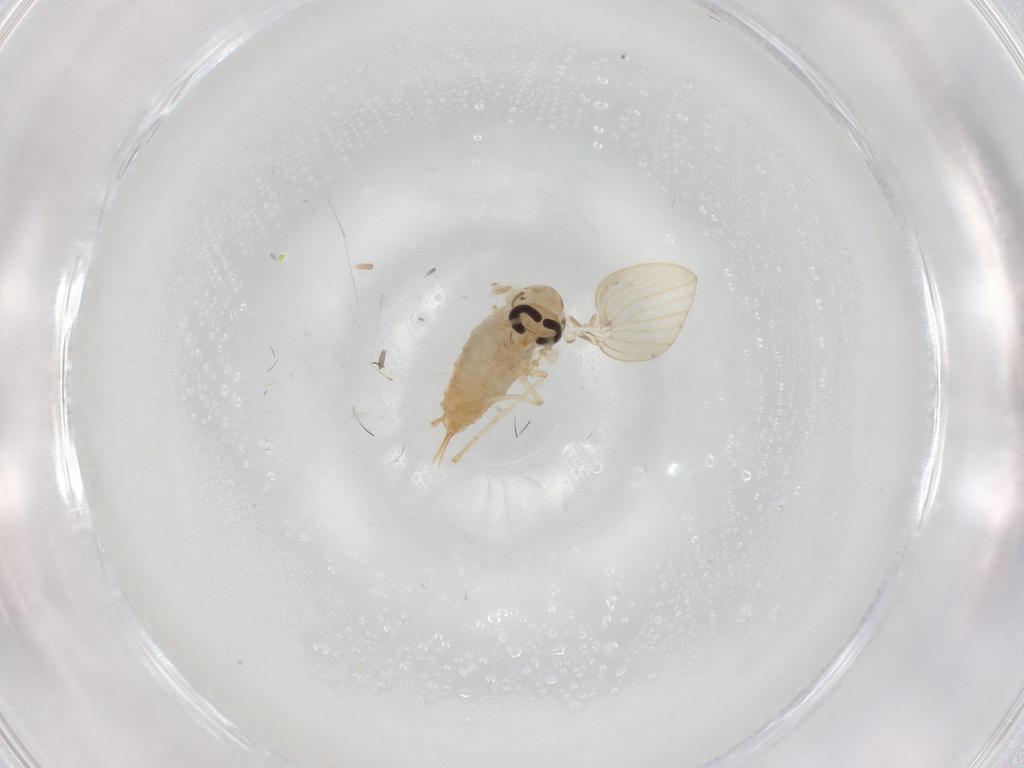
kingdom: Animalia
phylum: Arthropoda
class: Insecta
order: Diptera
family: Psychodidae
